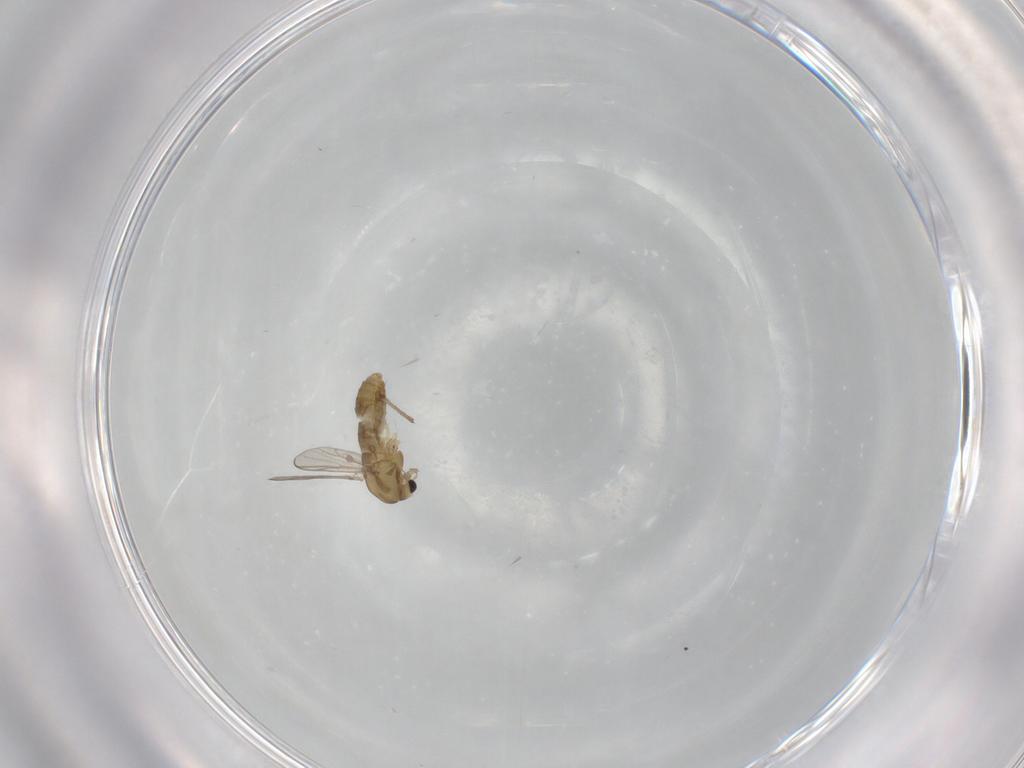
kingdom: Animalia
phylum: Arthropoda
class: Insecta
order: Diptera
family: Chironomidae
